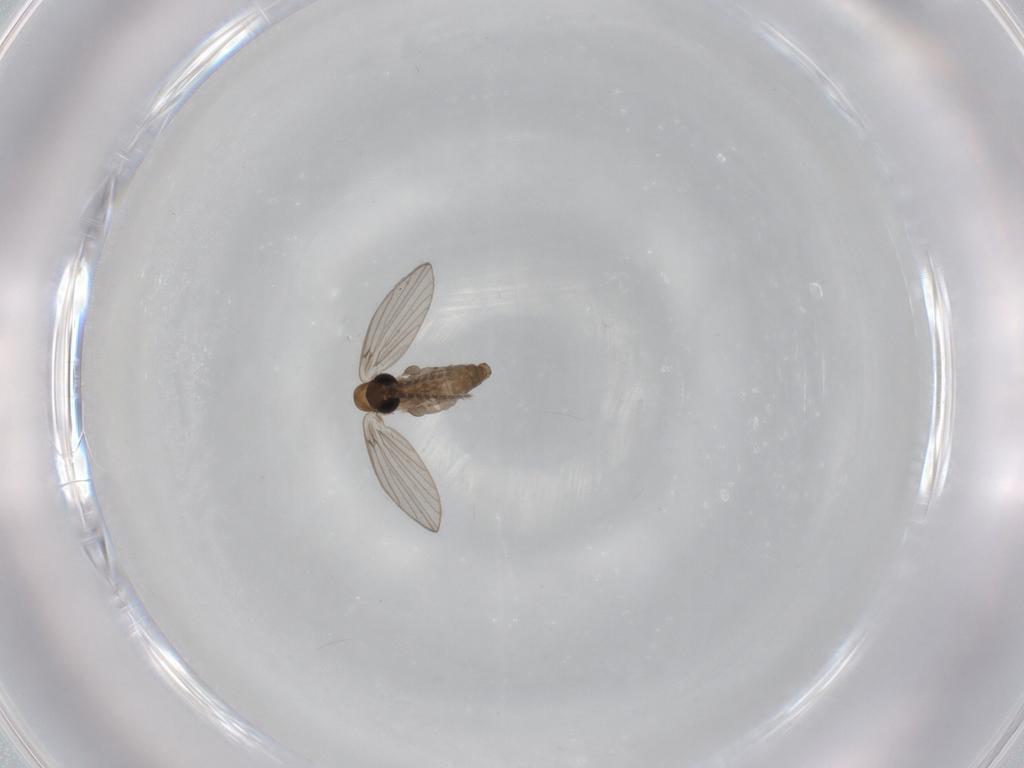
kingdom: Animalia
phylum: Arthropoda
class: Insecta
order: Diptera
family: Psychodidae
